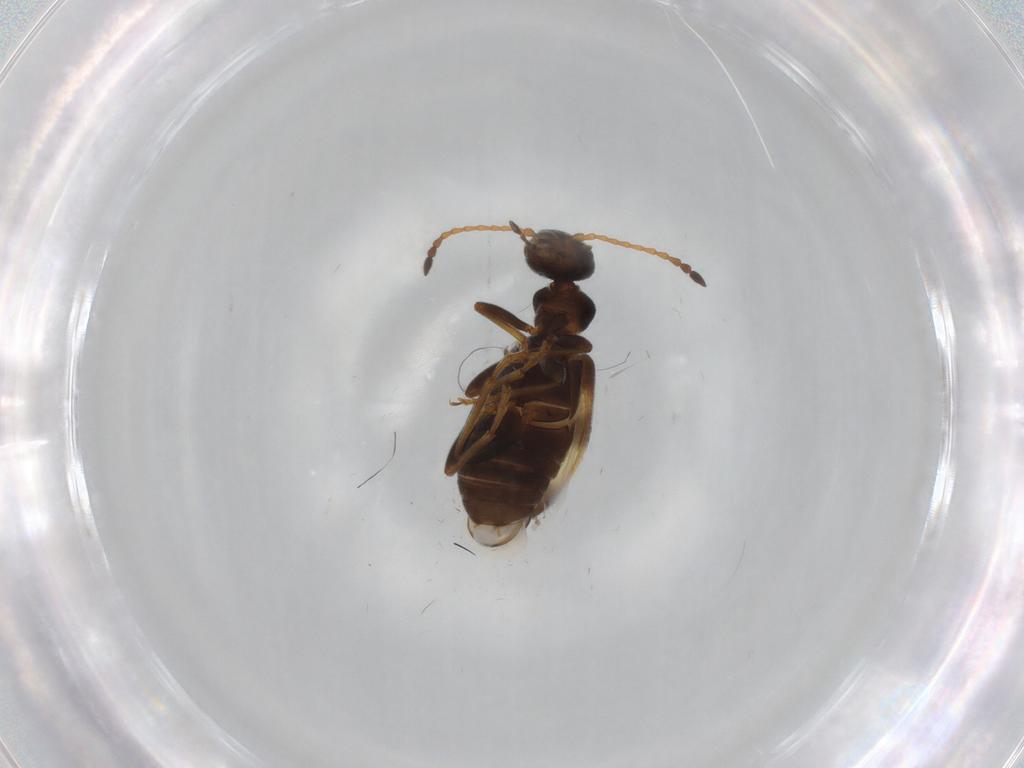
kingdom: Animalia
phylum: Arthropoda
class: Insecta
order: Coleoptera
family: Anthicidae
